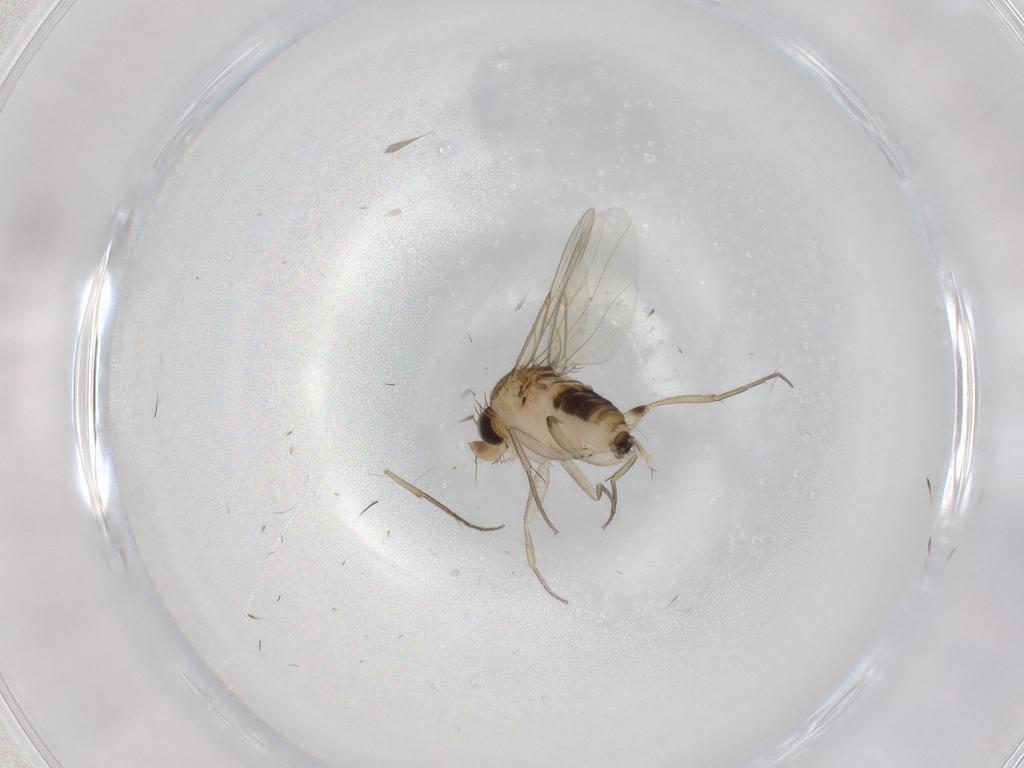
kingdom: Animalia
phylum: Arthropoda
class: Insecta
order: Diptera
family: Phoridae
